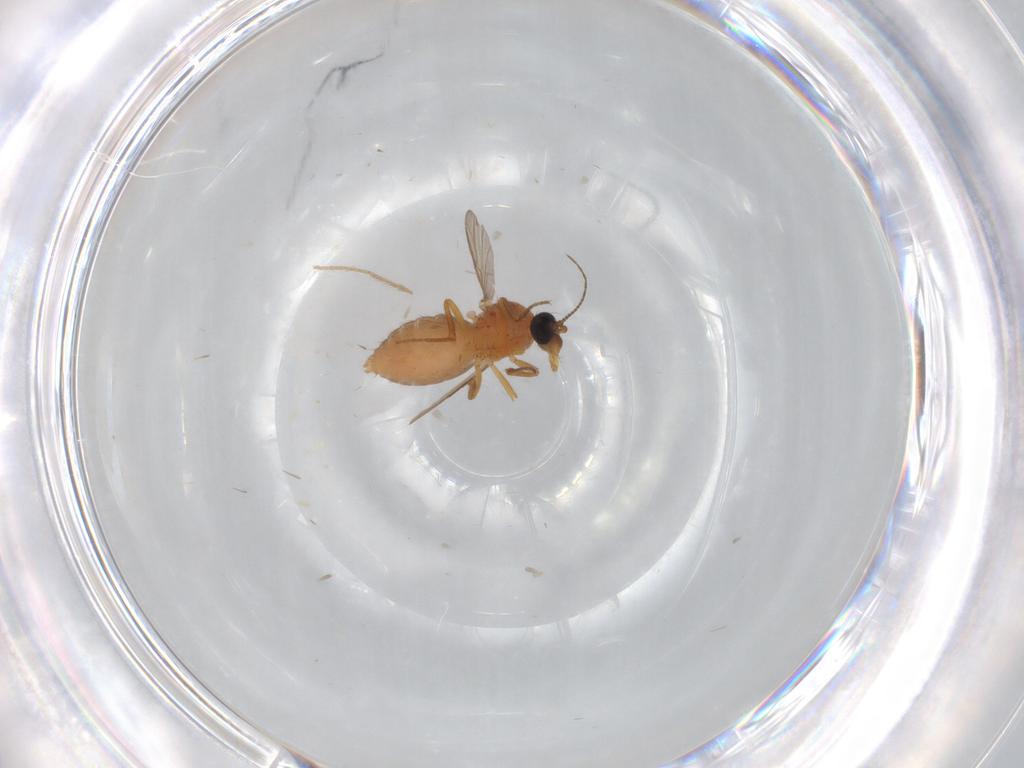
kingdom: Animalia
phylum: Arthropoda
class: Insecta
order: Diptera
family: Ceratopogonidae
